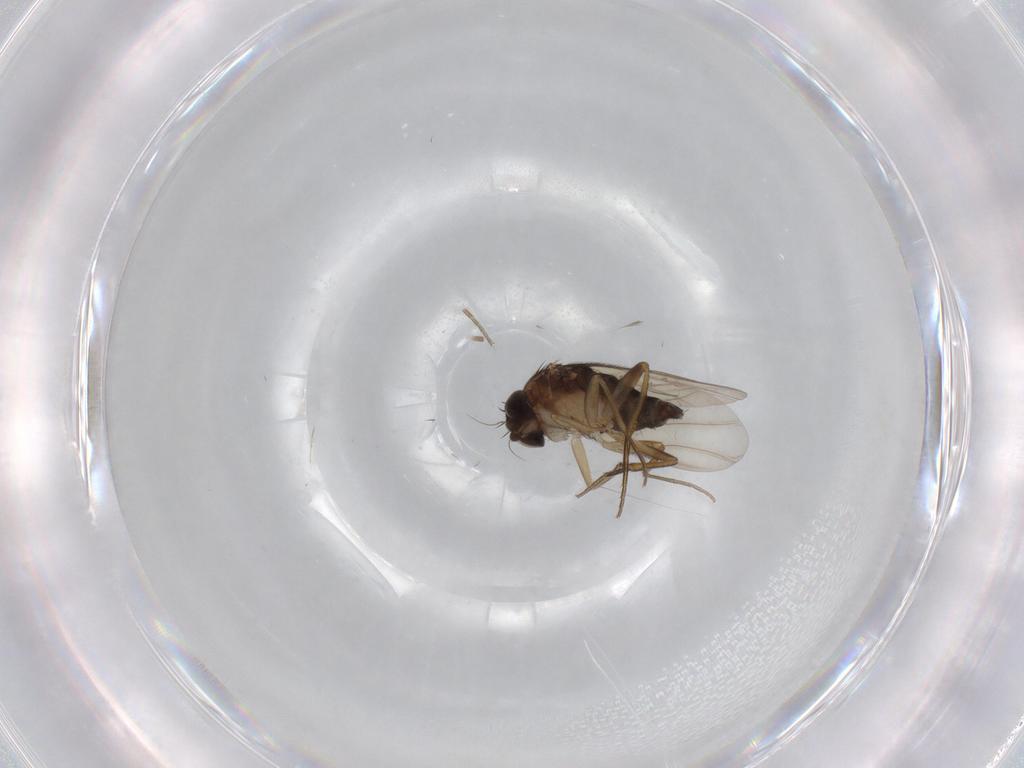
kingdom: Animalia
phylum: Arthropoda
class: Insecta
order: Diptera
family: Phoridae
